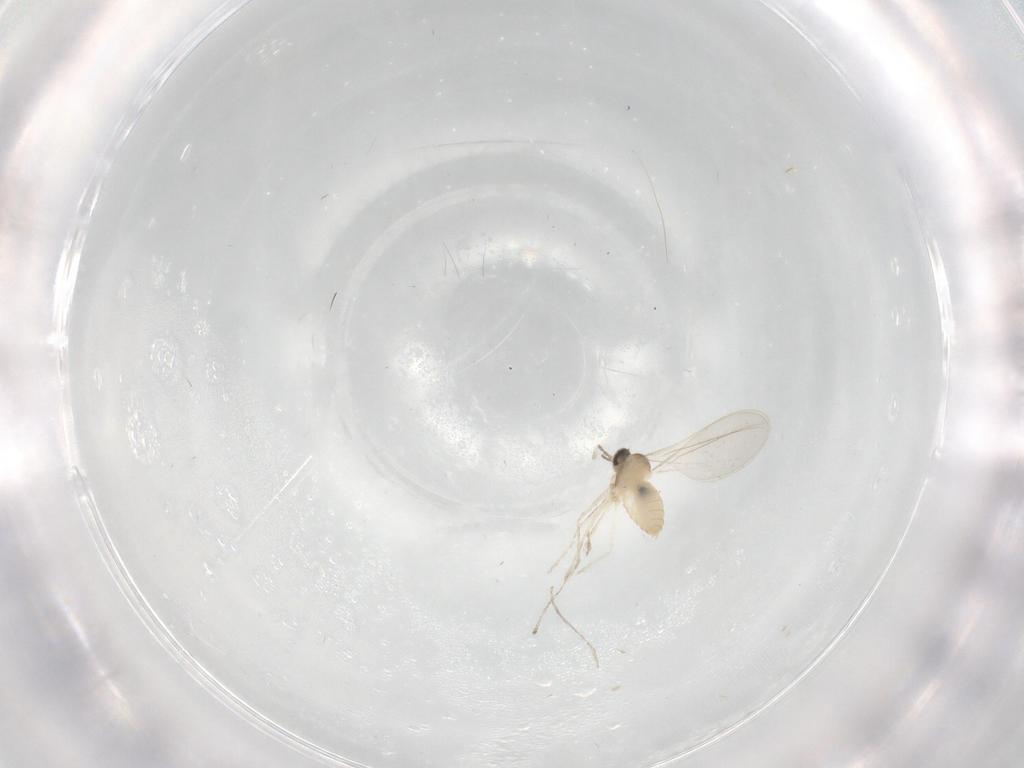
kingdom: Animalia
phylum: Arthropoda
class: Insecta
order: Diptera
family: Cecidomyiidae
